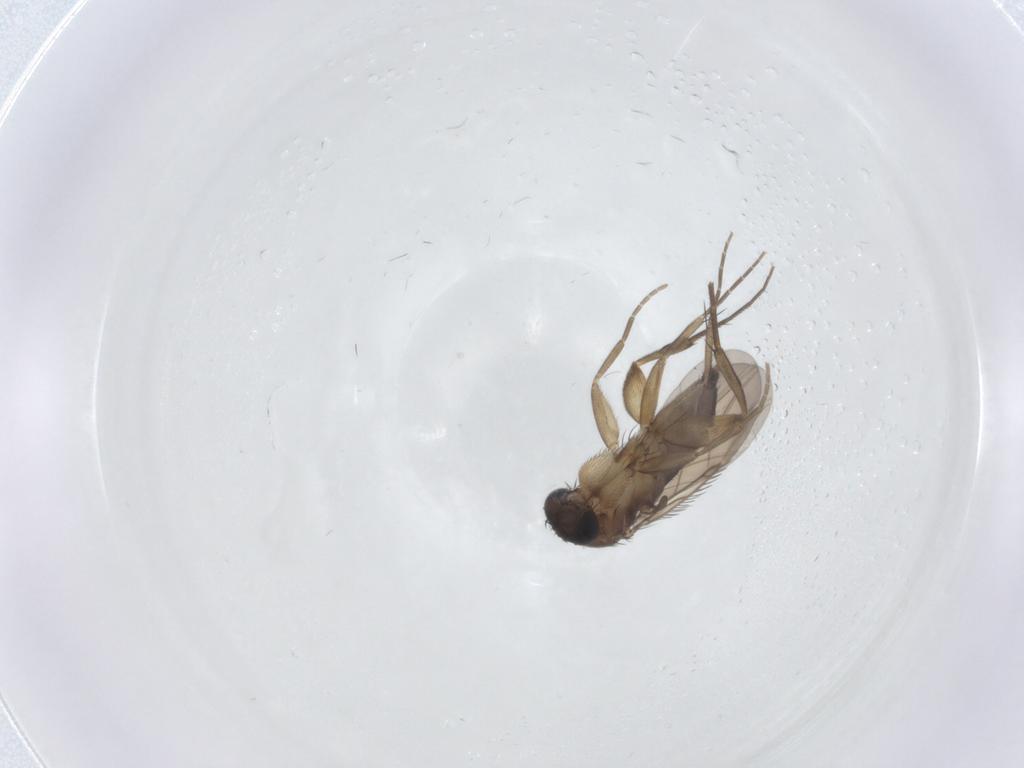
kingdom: Animalia
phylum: Arthropoda
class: Insecta
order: Diptera
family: Phoridae
